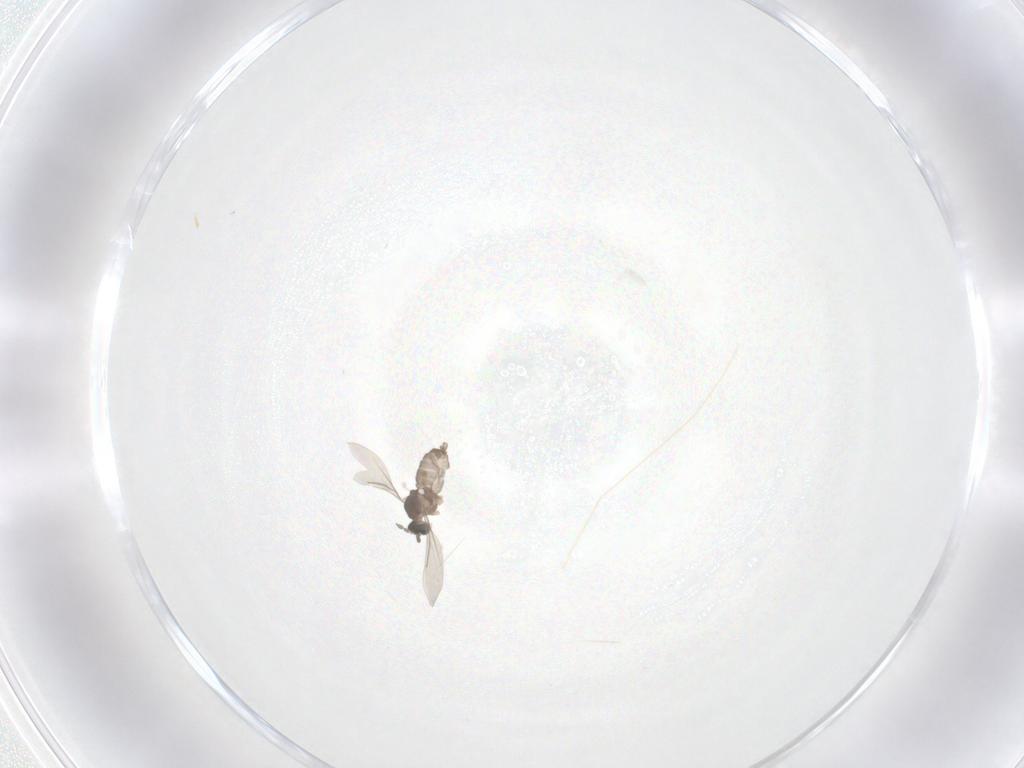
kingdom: Animalia
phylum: Arthropoda
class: Insecta
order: Diptera
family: Cecidomyiidae
